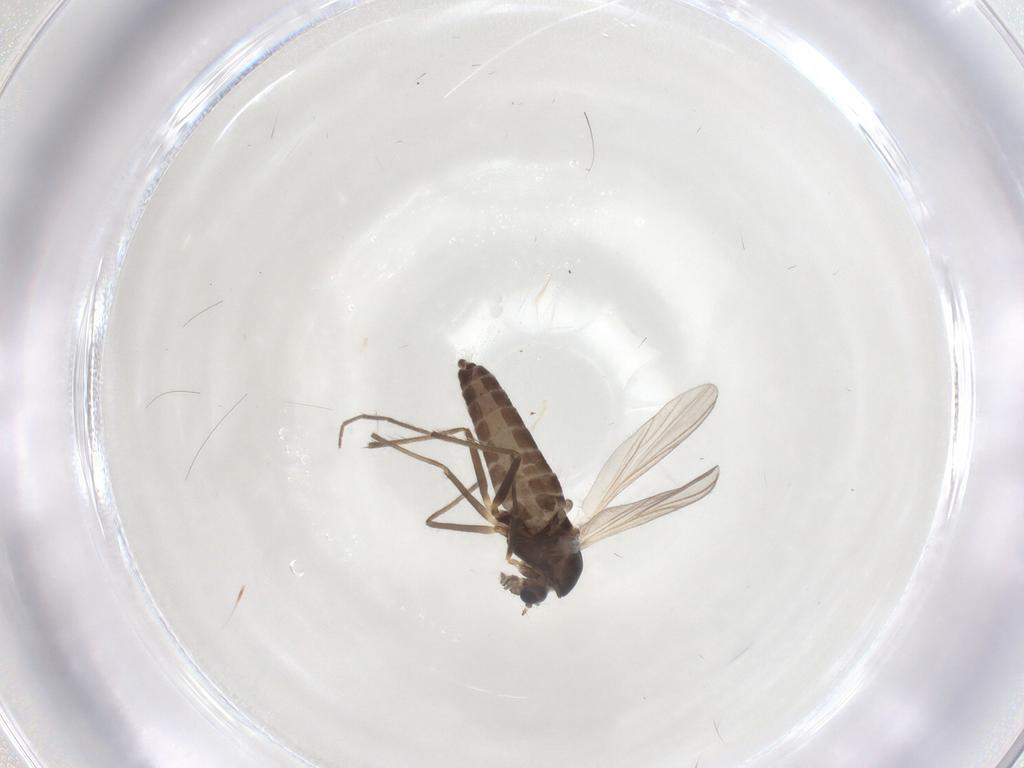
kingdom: Animalia
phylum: Arthropoda
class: Insecta
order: Diptera
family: Chironomidae
